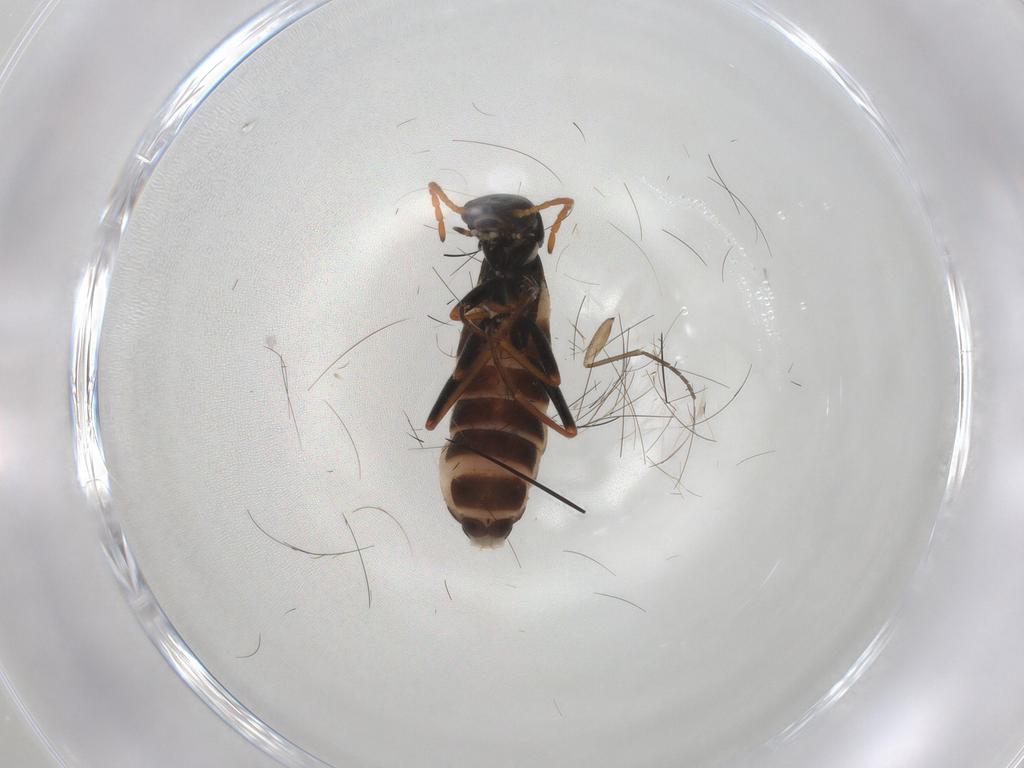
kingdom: Animalia
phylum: Arthropoda
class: Insecta
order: Coleoptera
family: Melyridae
